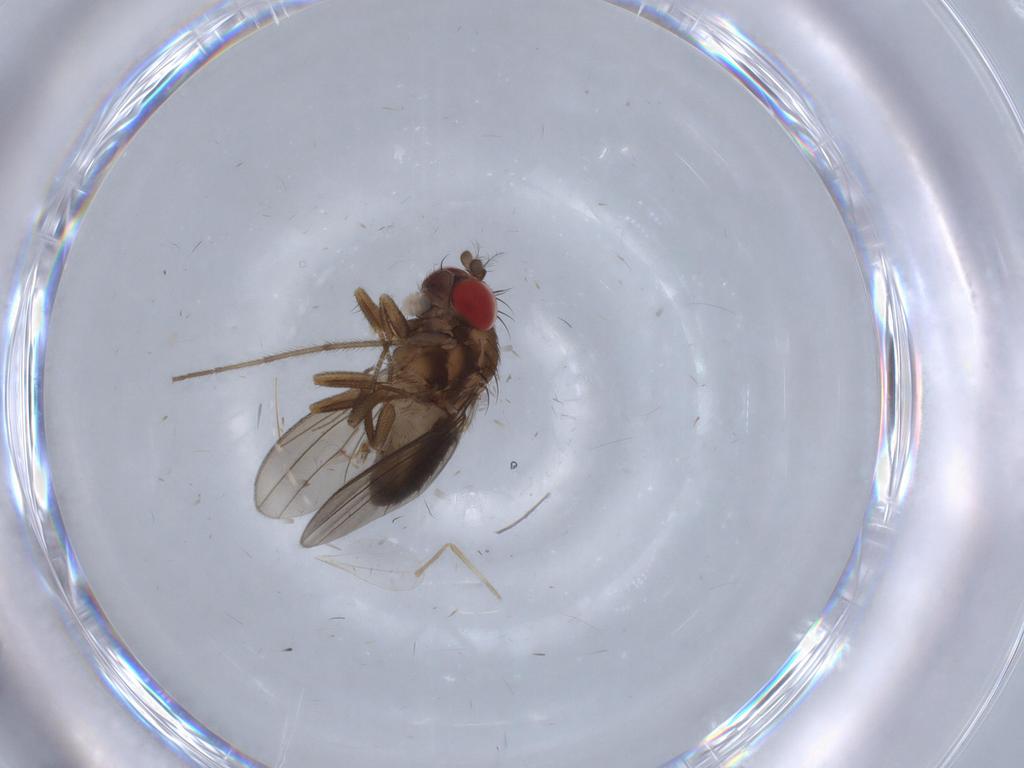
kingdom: Animalia
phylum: Arthropoda
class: Insecta
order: Diptera
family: Drosophilidae
